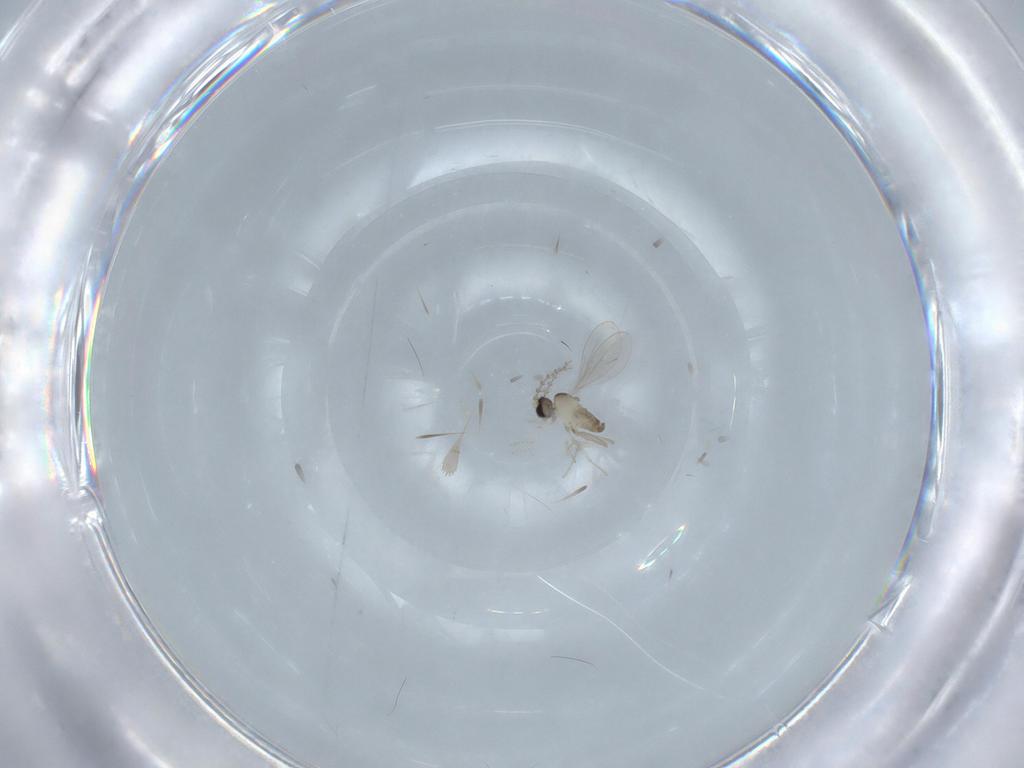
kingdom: Animalia
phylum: Arthropoda
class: Insecta
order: Diptera
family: Cecidomyiidae
